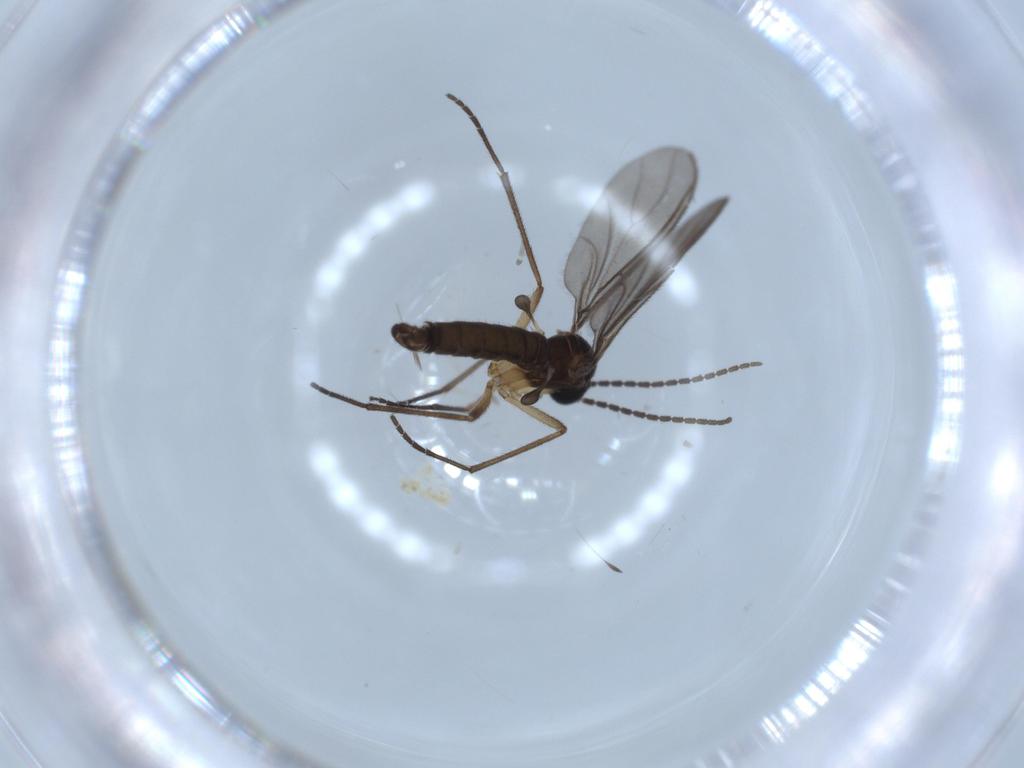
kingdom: Animalia
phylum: Arthropoda
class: Insecta
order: Diptera
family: Sciaridae
